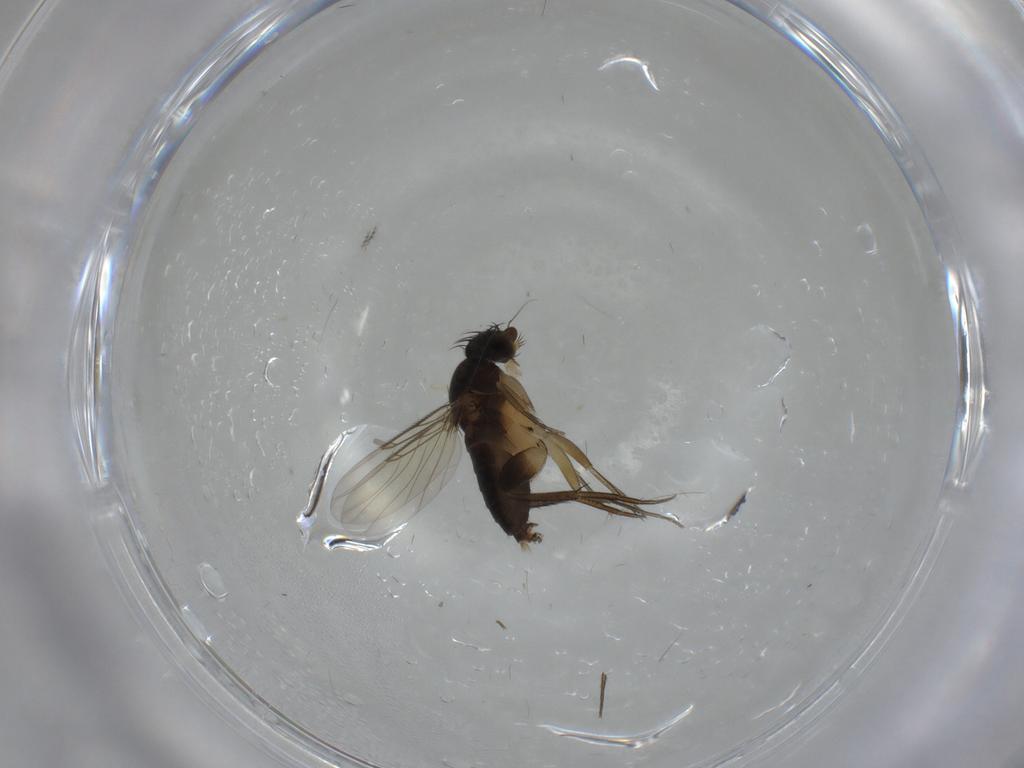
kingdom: Animalia
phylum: Arthropoda
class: Insecta
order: Diptera
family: Phoridae
